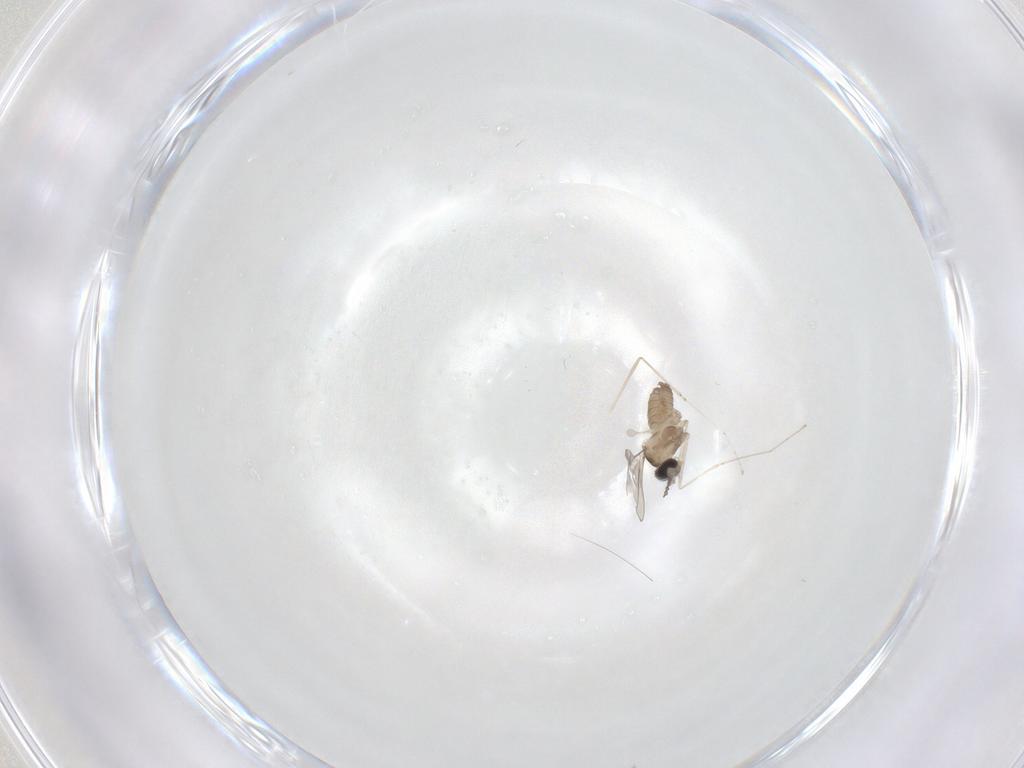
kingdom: Animalia
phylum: Arthropoda
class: Insecta
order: Diptera
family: Cecidomyiidae
